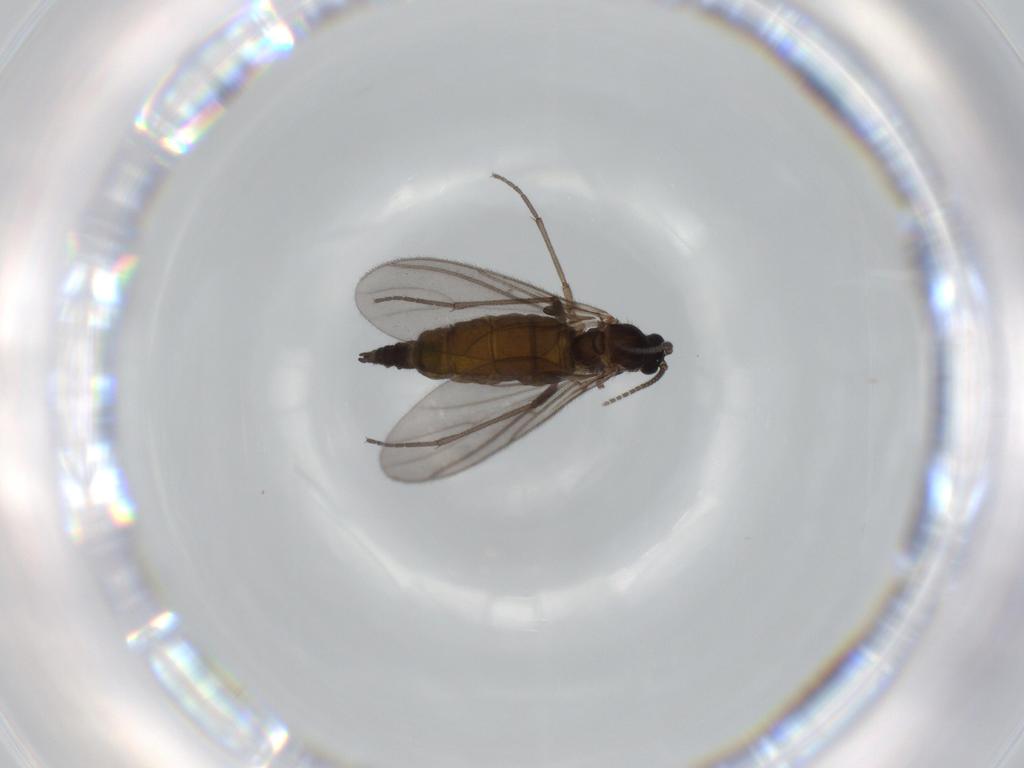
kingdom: Animalia
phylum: Arthropoda
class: Insecta
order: Diptera
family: Sciaridae
